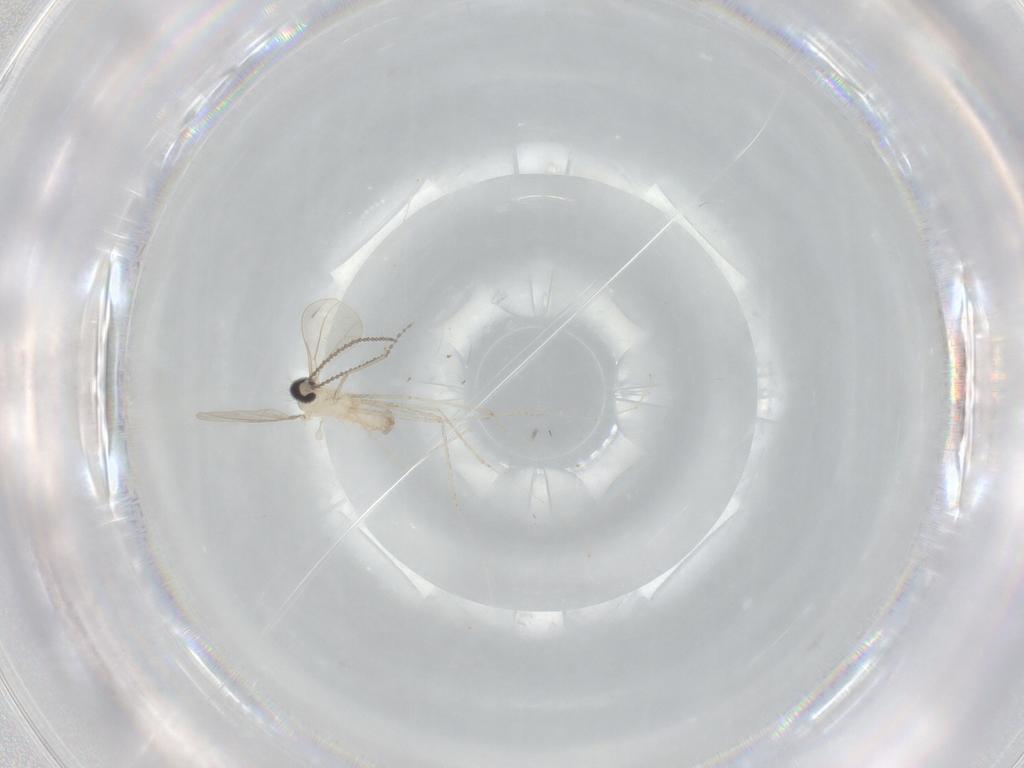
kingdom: Animalia
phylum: Arthropoda
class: Insecta
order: Diptera
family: Cecidomyiidae
